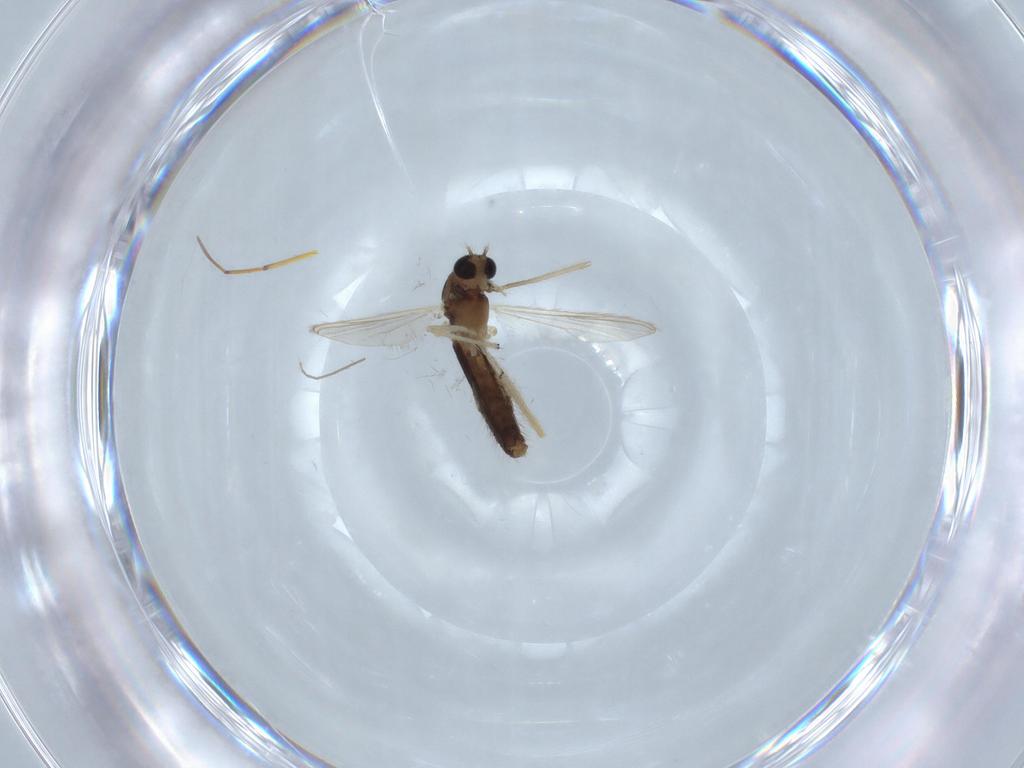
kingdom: Animalia
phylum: Arthropoda
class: Insecta
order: Diptera
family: Chironomidae
